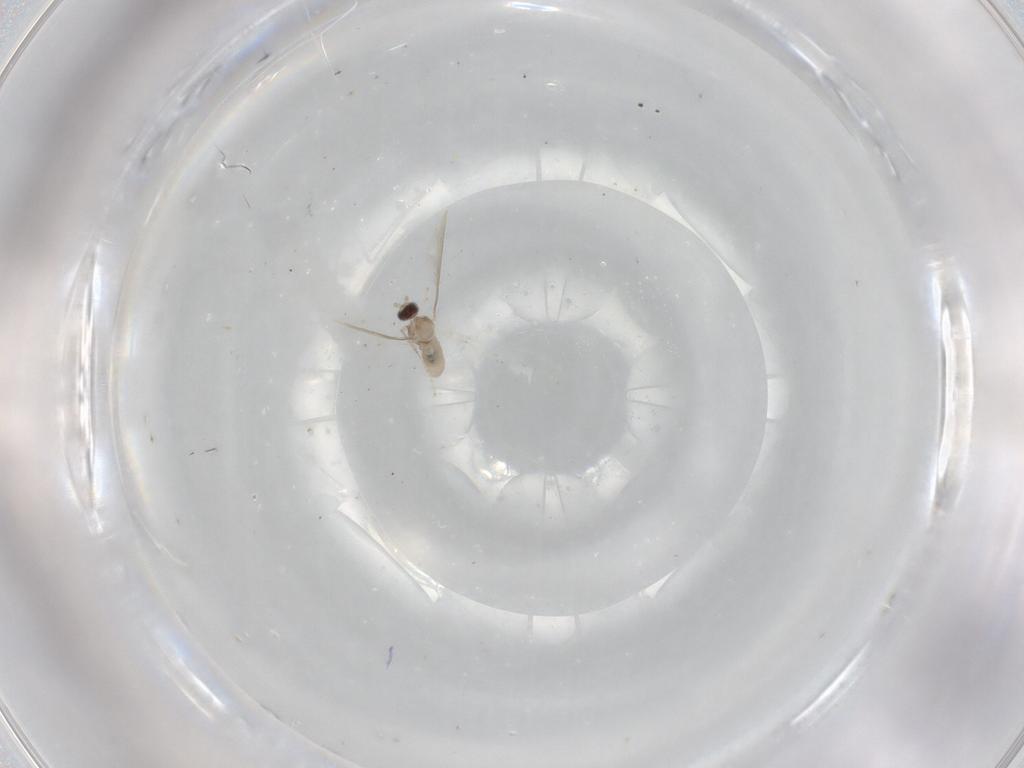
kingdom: Animalia
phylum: Arthropoda
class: Insecta
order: Diptera
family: Cecidomyiidae
